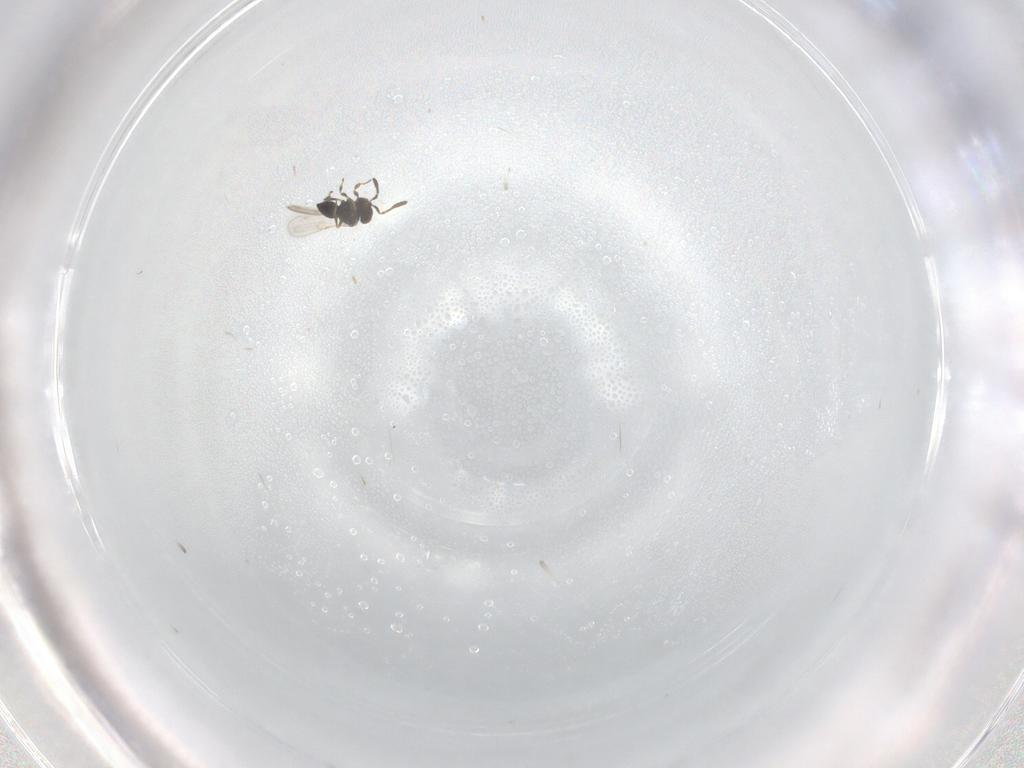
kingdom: Animalia
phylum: Arthropoda
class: Insecta
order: Hymenoptera
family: Scelionidae
